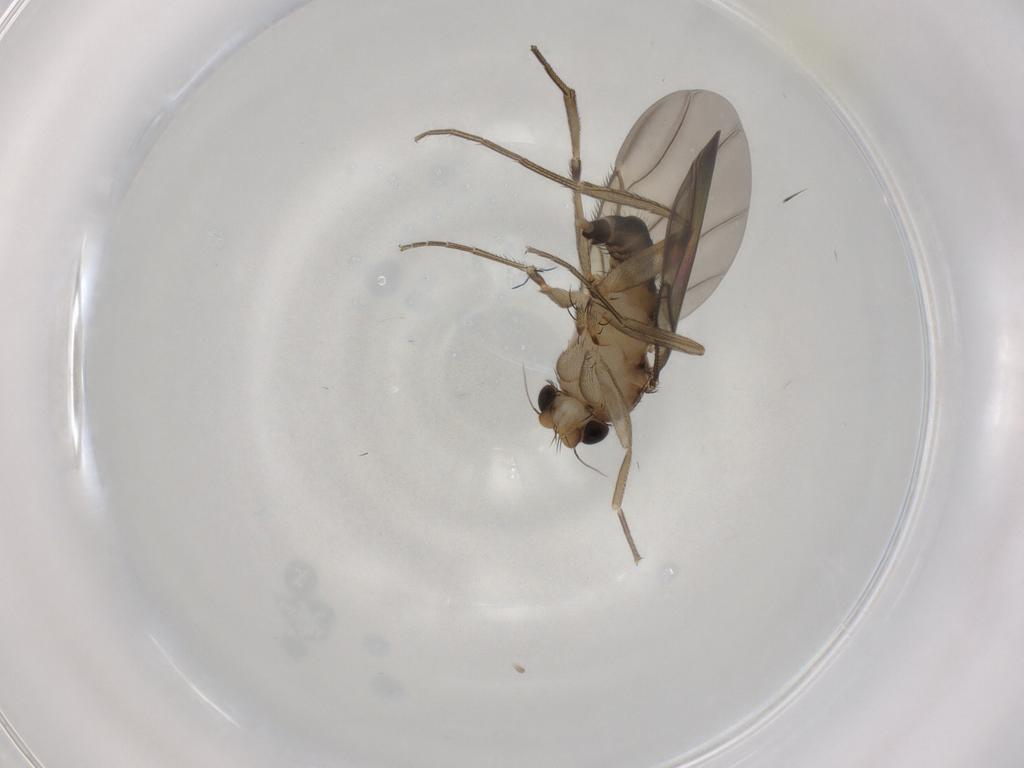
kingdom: Animalia
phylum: Arthropoda
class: Insecta
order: Diptera
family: Phoridae
